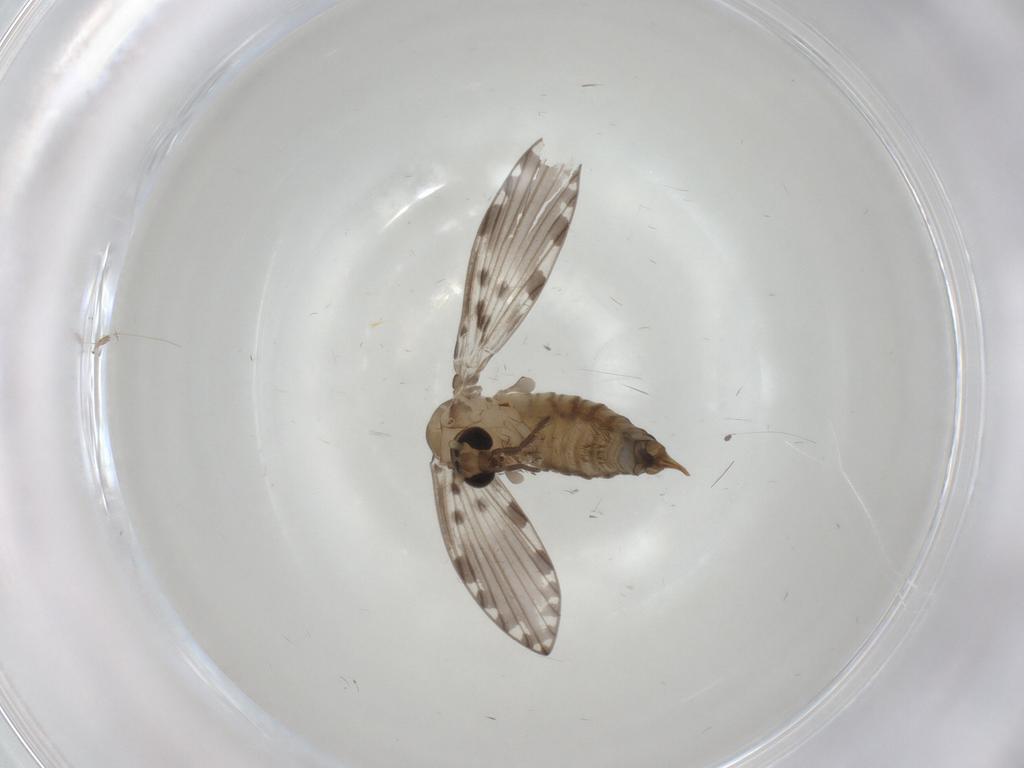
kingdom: Animalia
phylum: Arthropoda
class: Insecta
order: Diptera
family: Psychodidae
